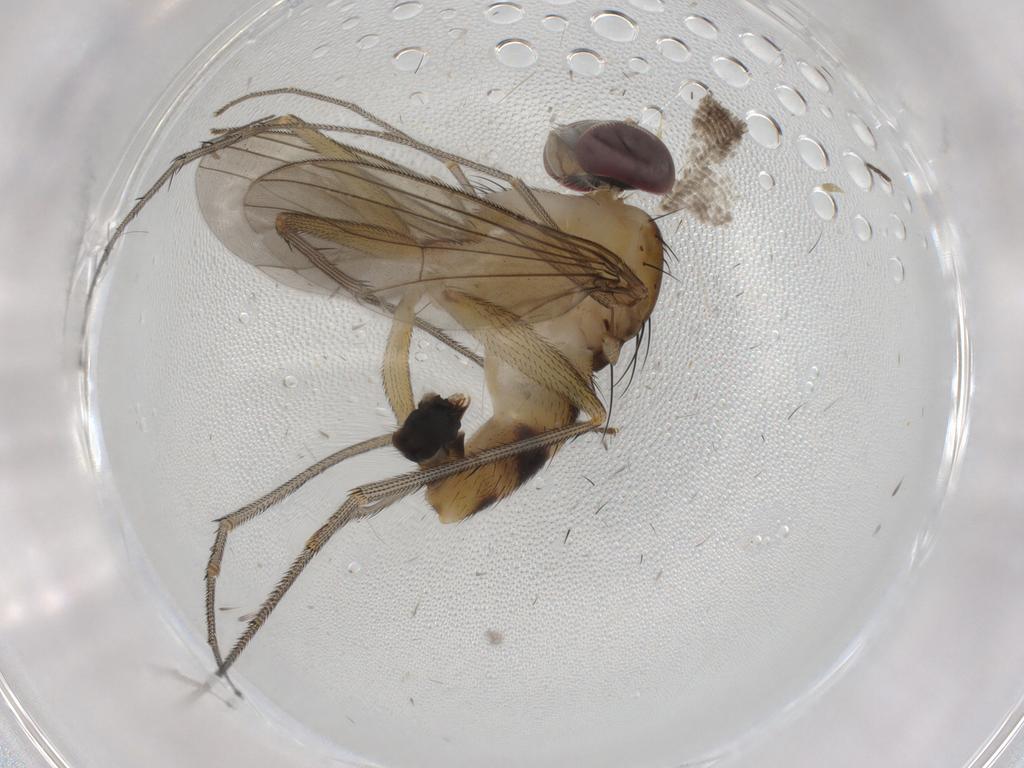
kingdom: Animalia
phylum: Arthropoda
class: Insecta
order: Diptera
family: Sciaridae
